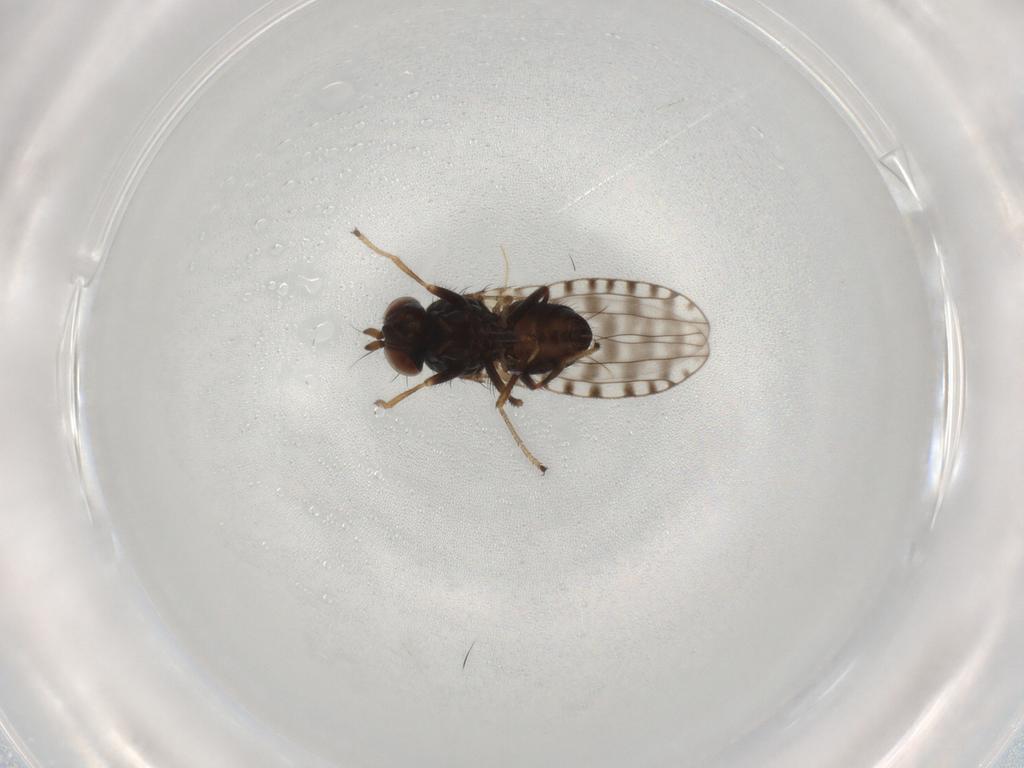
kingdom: Animalia
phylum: Arthropoda
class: Insecta
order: Diptera
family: Ephydridae
